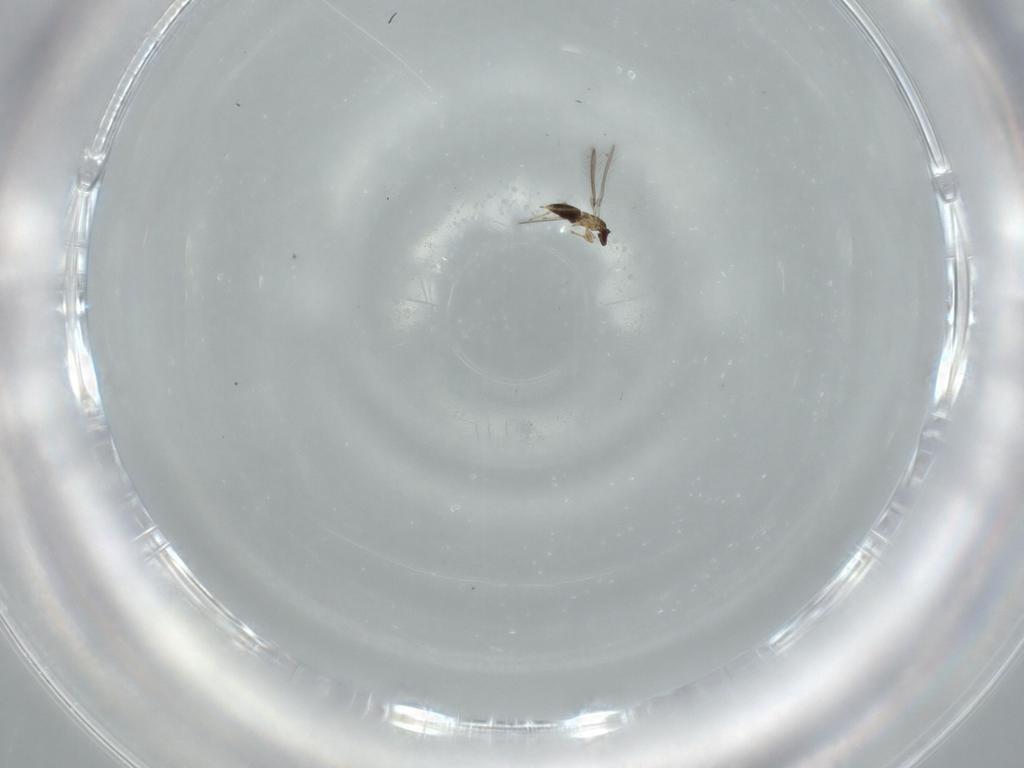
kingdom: Animalia
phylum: Arthropoda
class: Insecta
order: Hymenoptera
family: Mymaridae
